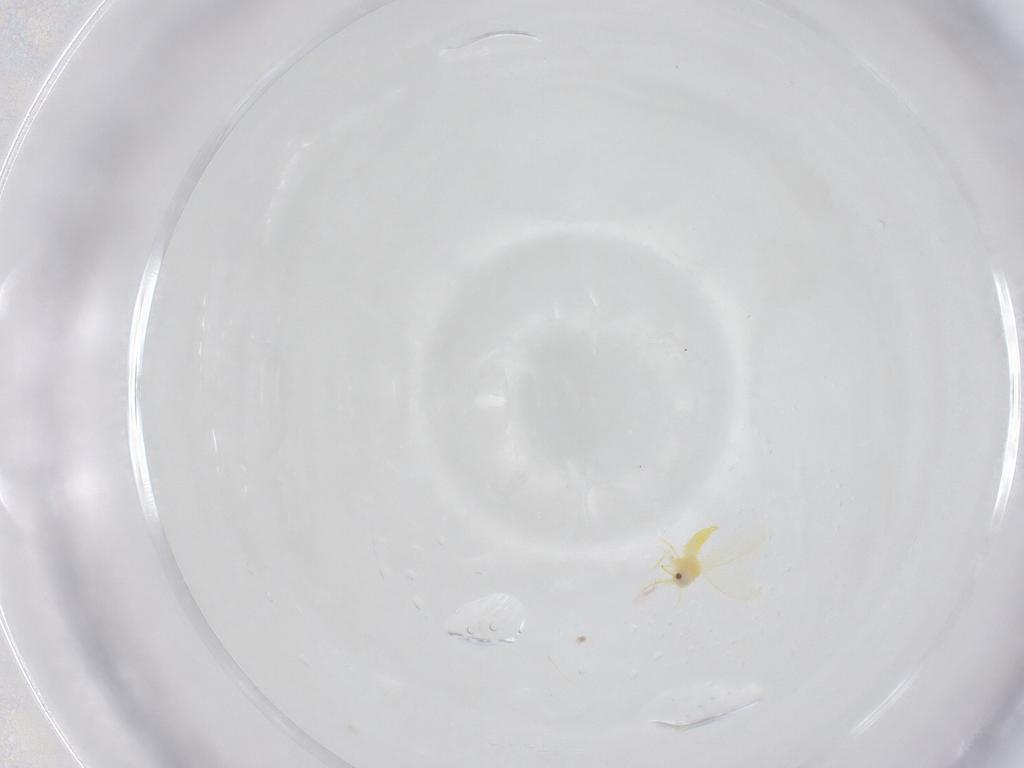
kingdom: Animalia
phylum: Arthropoda
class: Insecta
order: Hemiptera
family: Aleyrodidae
